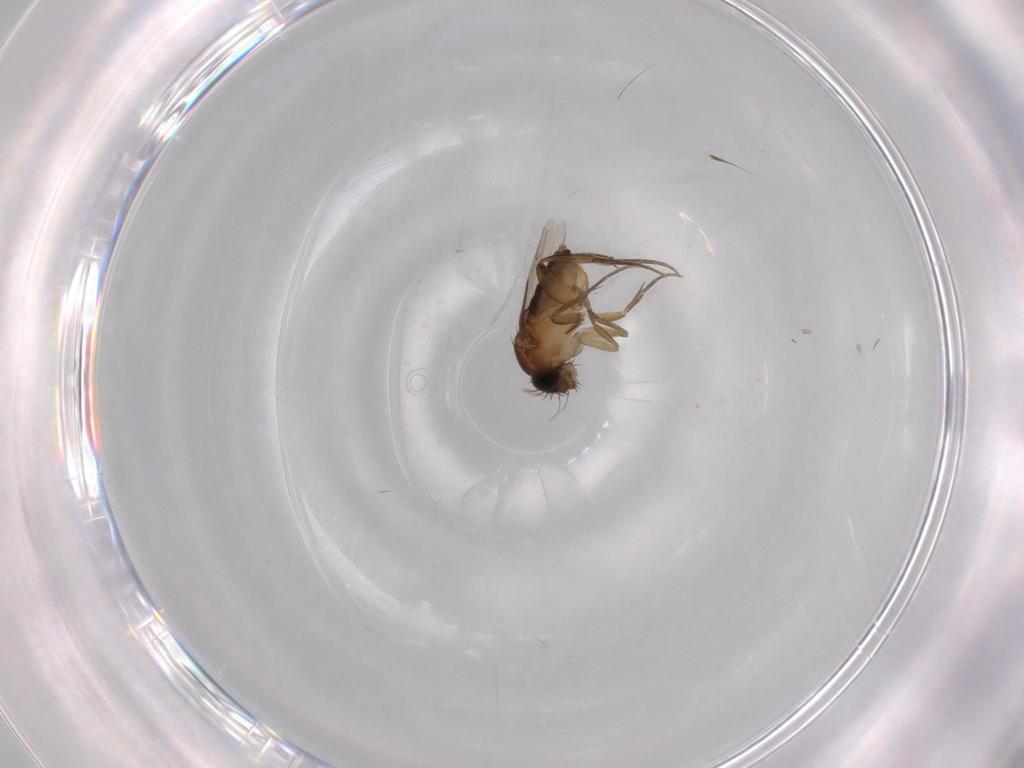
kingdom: Animalia
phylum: Arthropoda
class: Insecta
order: Diptera
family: Phoridae
